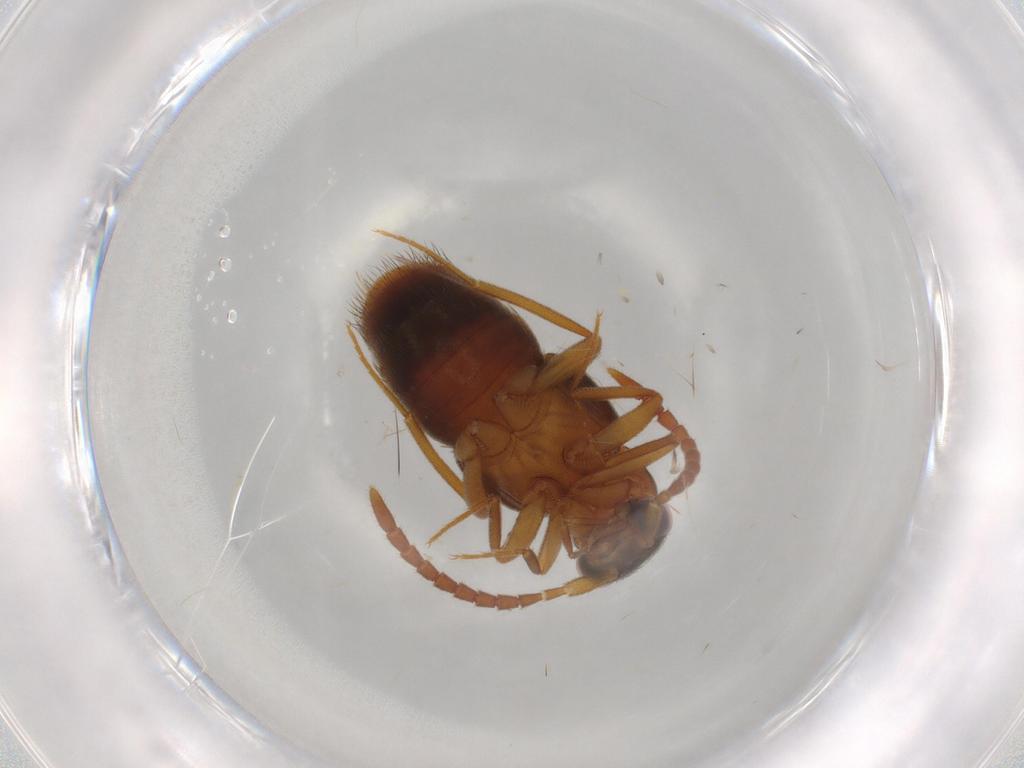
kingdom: Animalia
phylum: Arthropoda
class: Insecta
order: Coleoptera
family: Staphylinidae
